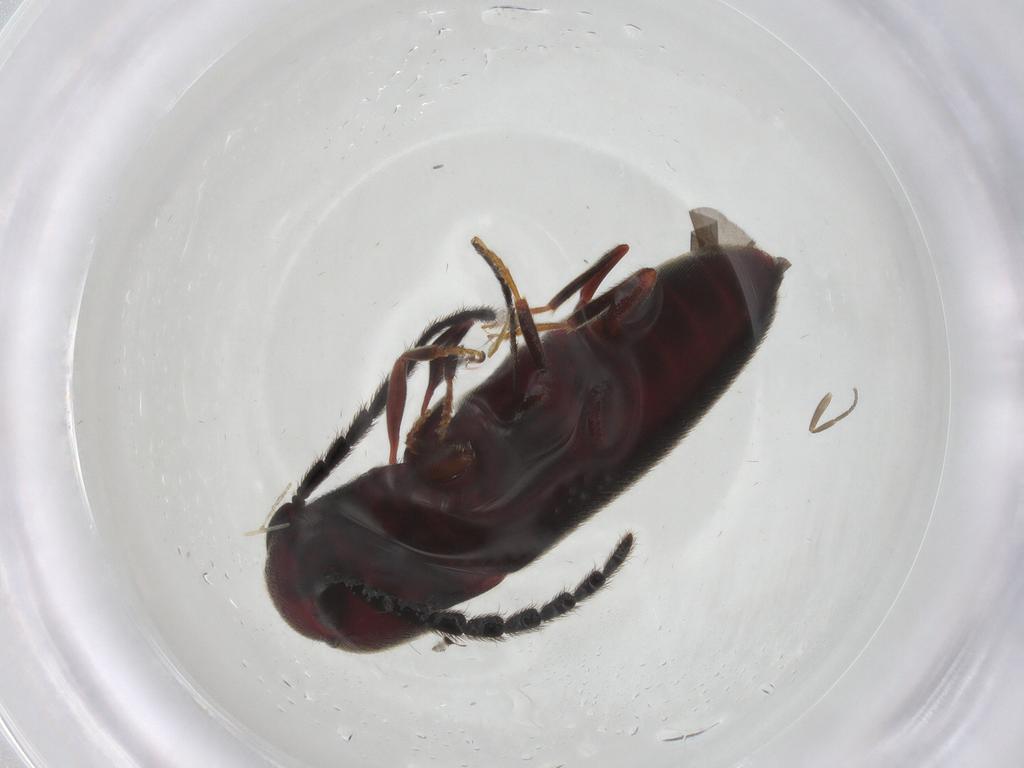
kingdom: Animalia
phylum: Arthropoda
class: Insecta
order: Coleoptera
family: Eucnemidae
